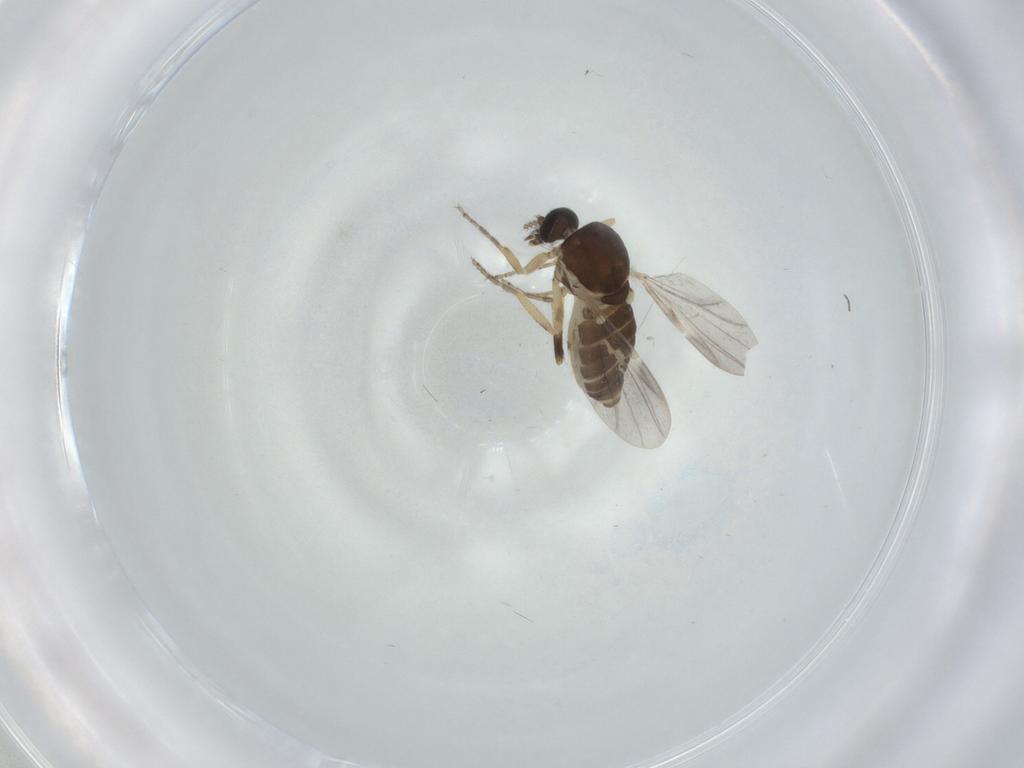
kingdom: Animalia
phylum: Arthropoda
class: Insecta
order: Diptera
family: Ceratopogonidae
